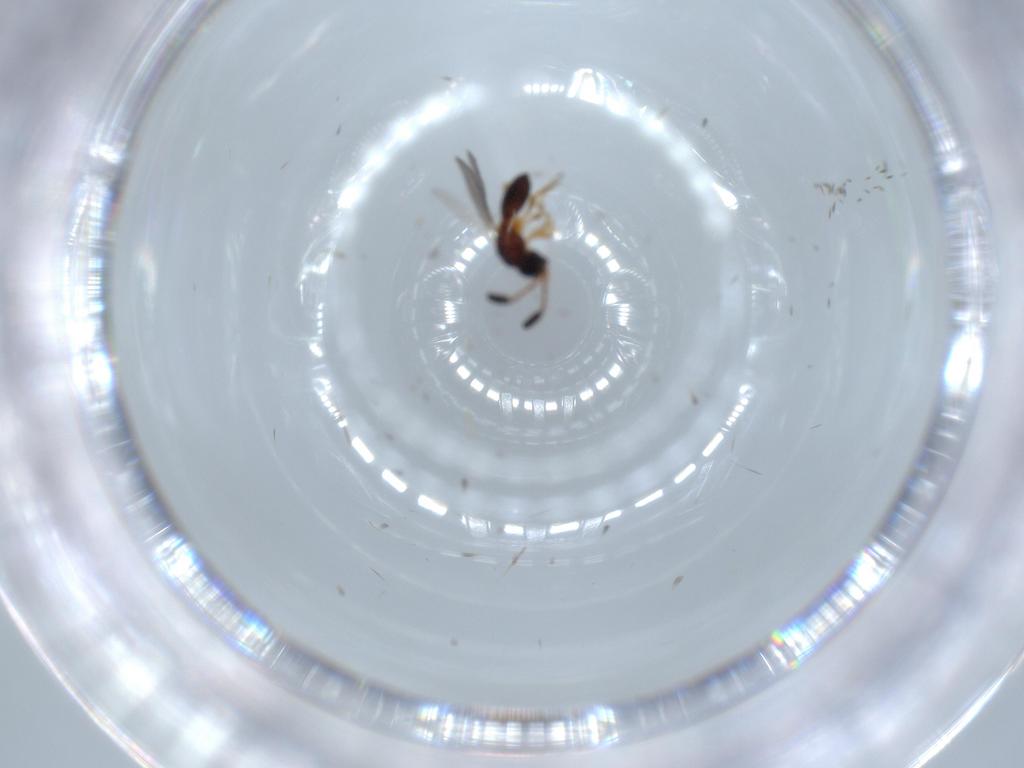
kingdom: Animalia
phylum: Arthropoda
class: Insecta
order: Hymenoptera
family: Diapriidae
